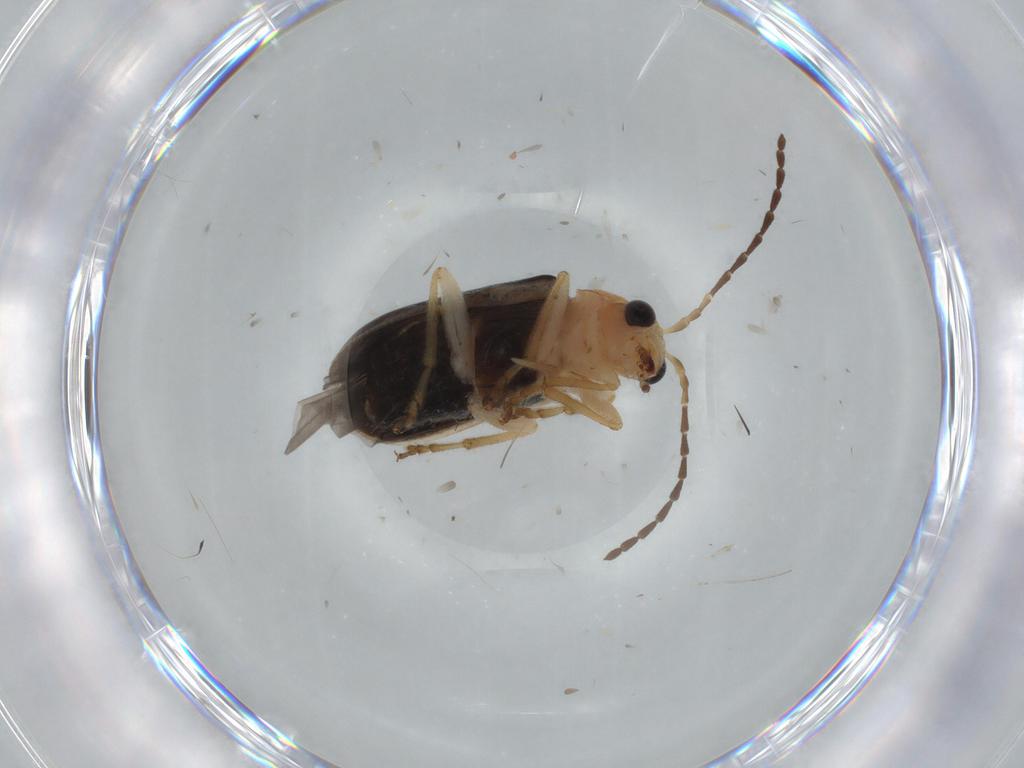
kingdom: Animalia
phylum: Arthropoda
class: Insecta
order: Coleoptera
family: Chrysomelidae
